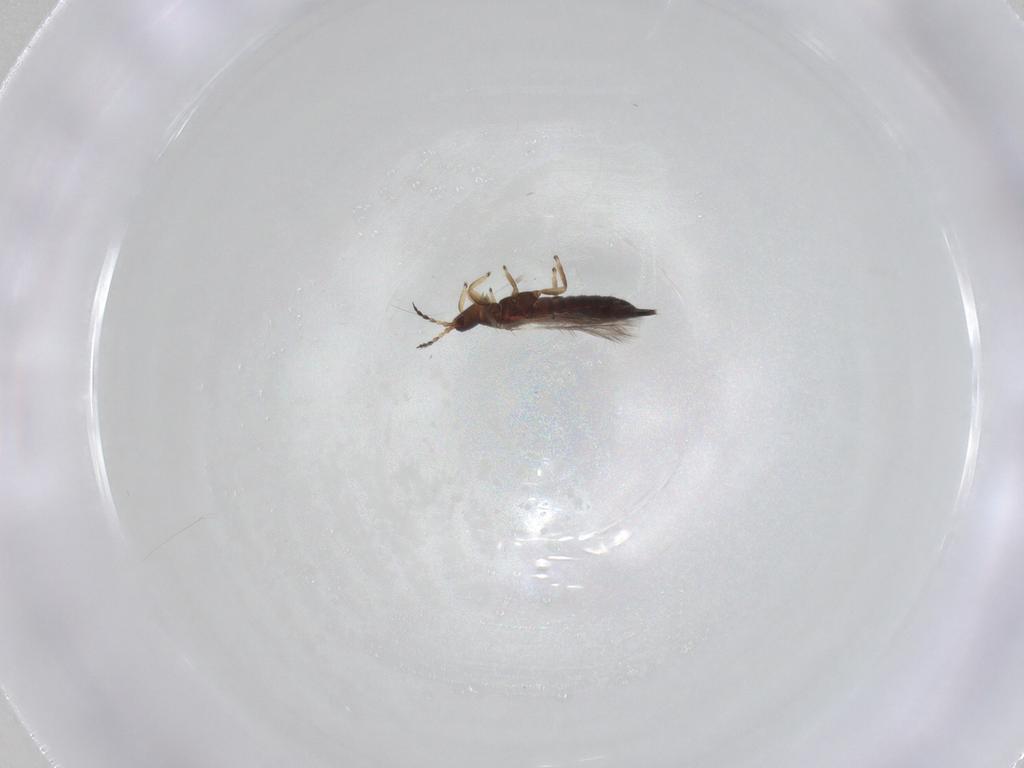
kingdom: Animalia
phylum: Arthropoda
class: Insecta
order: Thysanoptera
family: Phlaeothripidae
